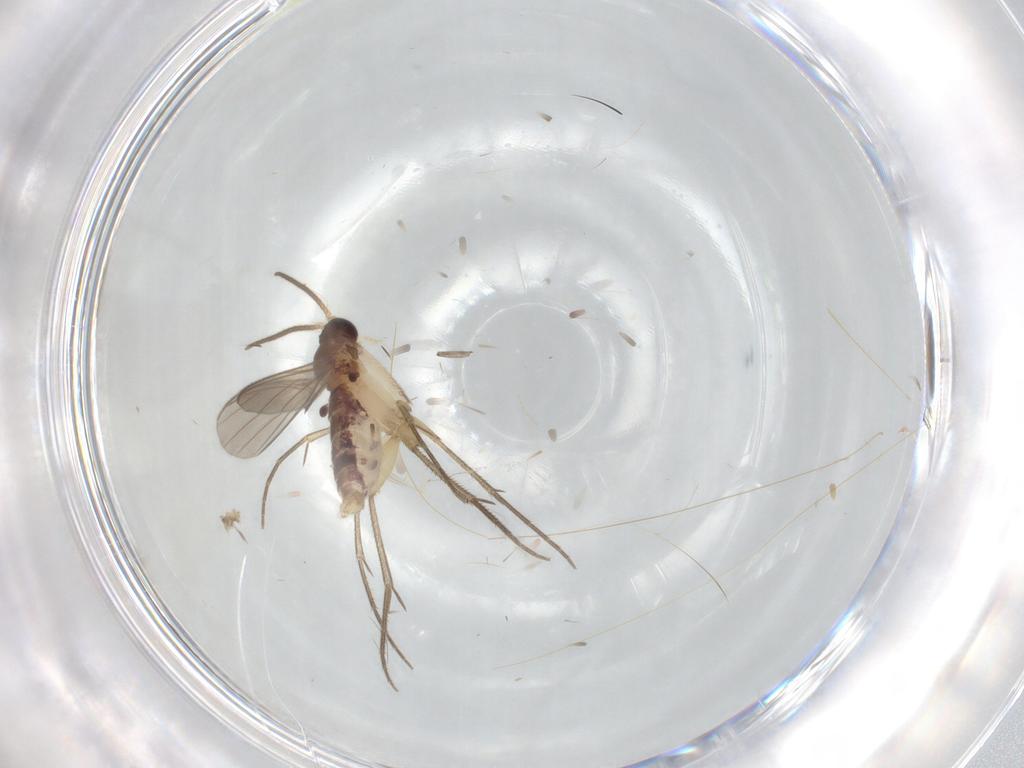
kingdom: Animalia
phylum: Arthropoda
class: Insecta
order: Diptera
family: Mycetophilidae
